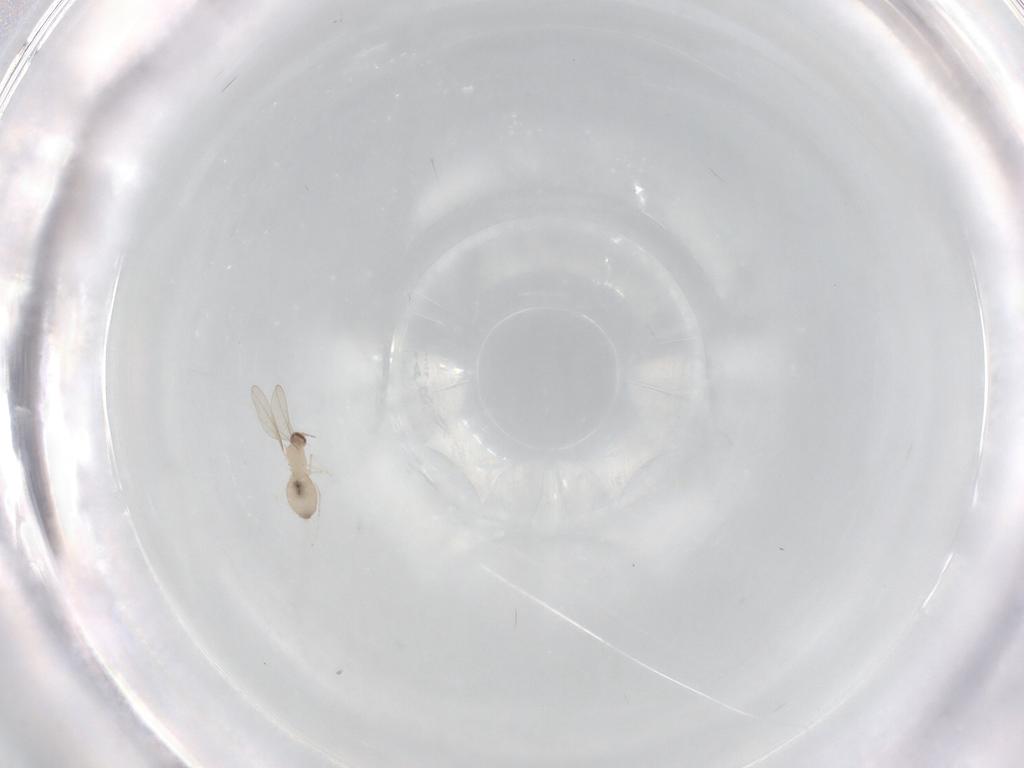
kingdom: Animalia
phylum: Arthropoda
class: Insecta
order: Diptera
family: Cecidomyiidae
